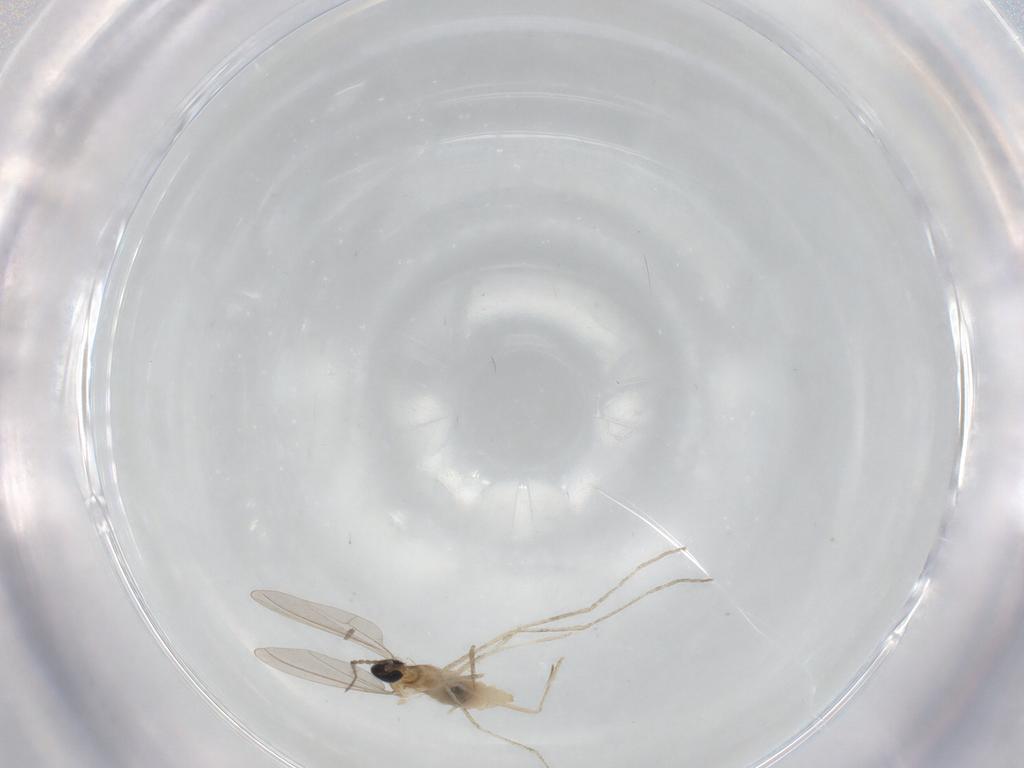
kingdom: Animalia
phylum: Arthropoda
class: Insecta
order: Diptera
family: Cecidomyiidae
